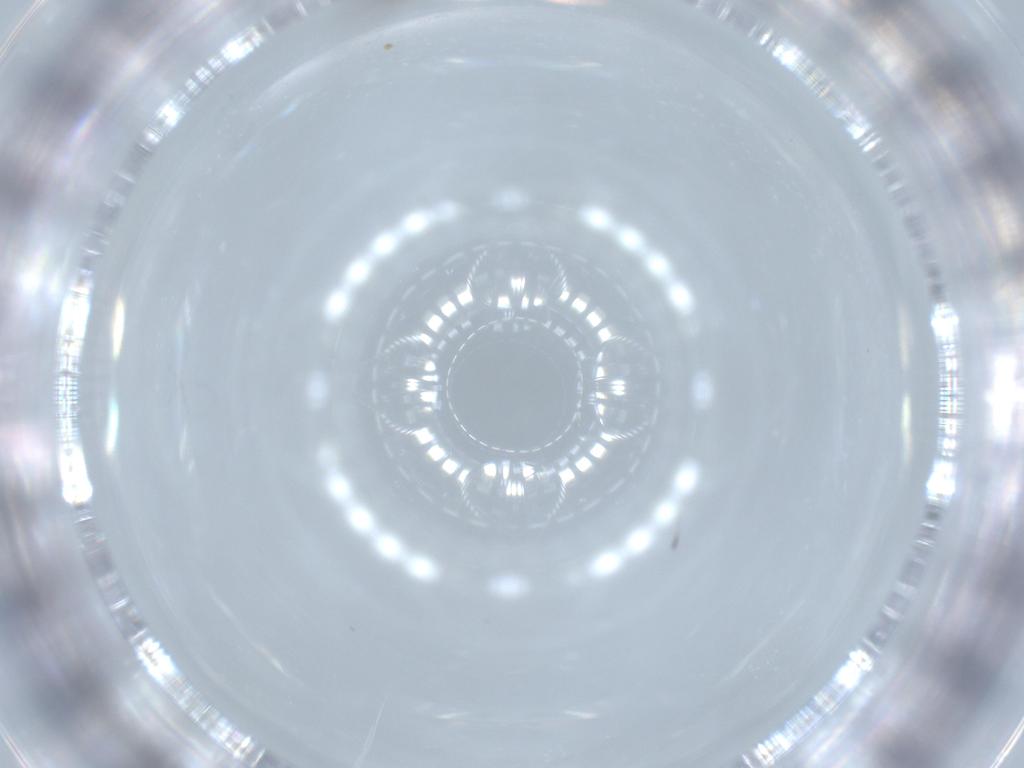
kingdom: Animalia
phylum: Arthropoda
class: Insecta
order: Diptera
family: Cecidomyiidae
